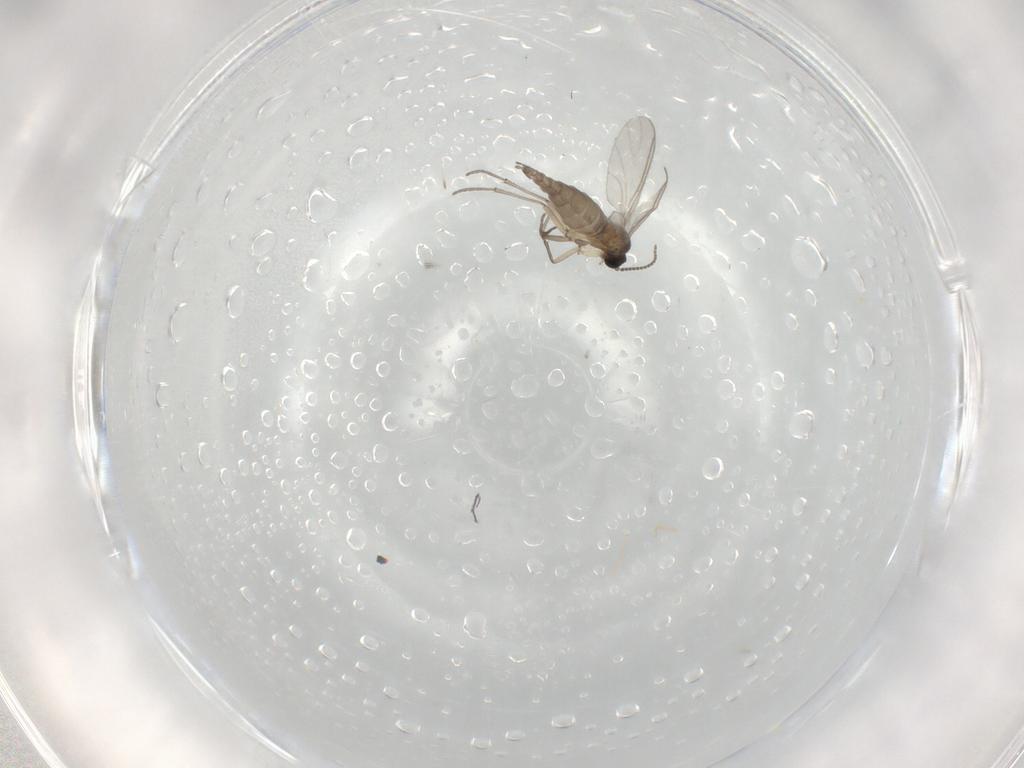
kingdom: Animalia
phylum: Arthropoda
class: Insecta
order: Diptera
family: Sciaridae
